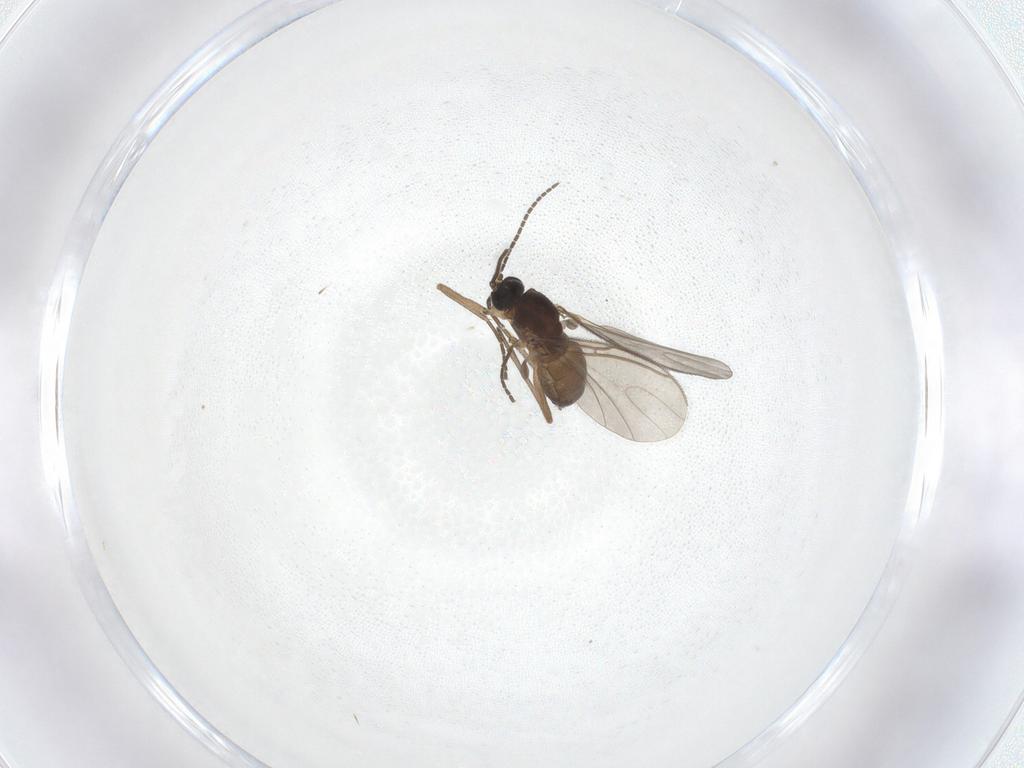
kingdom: Animalia
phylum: Arthropoda
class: Insecta
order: Diptera
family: Sciaridae
